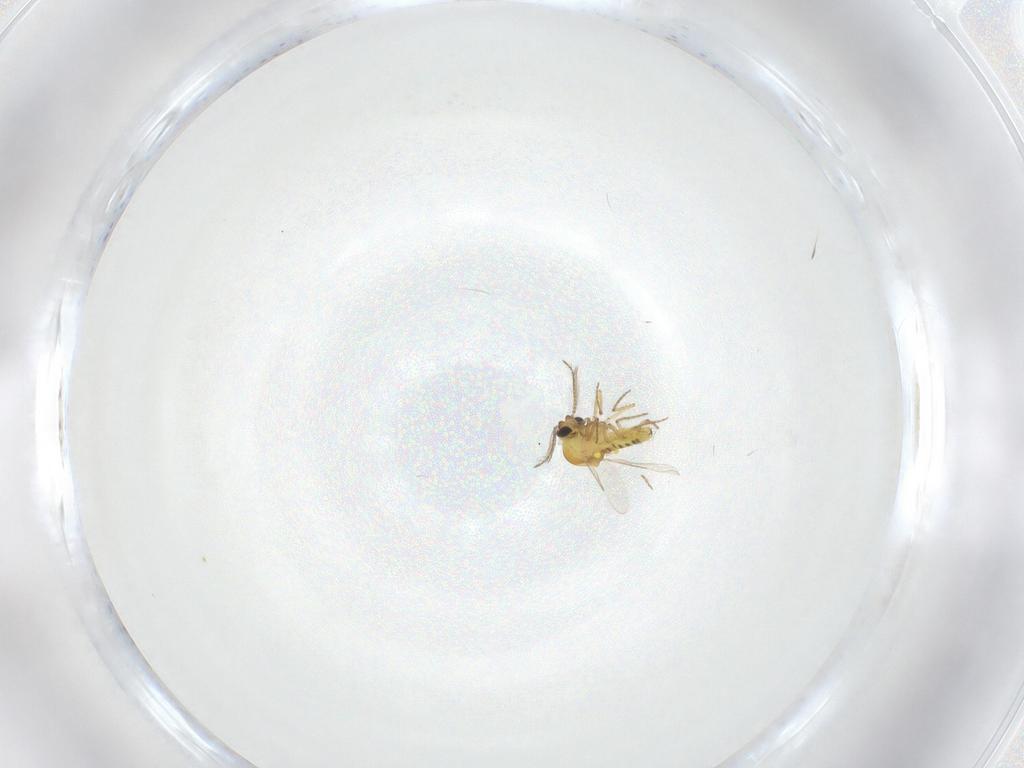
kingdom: Animalia
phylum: Arthropoda
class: Insecta
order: Diptera
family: Ceratopogonidae
